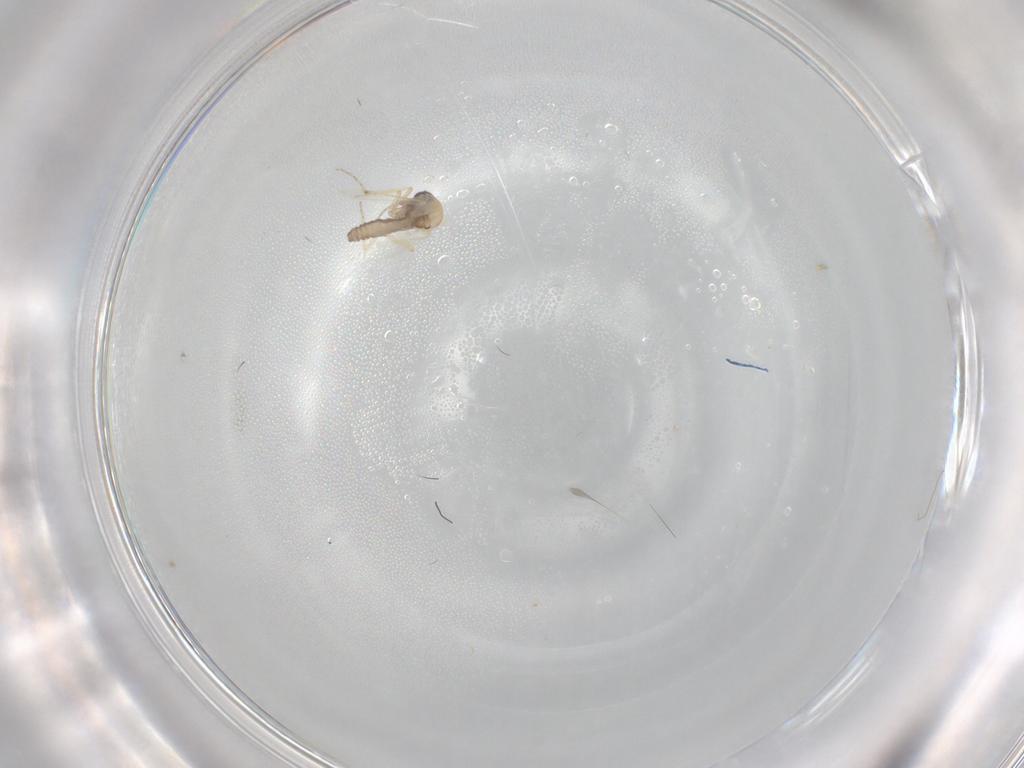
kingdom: Animalia
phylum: Arthropoda
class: Insecta
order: Diptera
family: Ceratopogonidae
